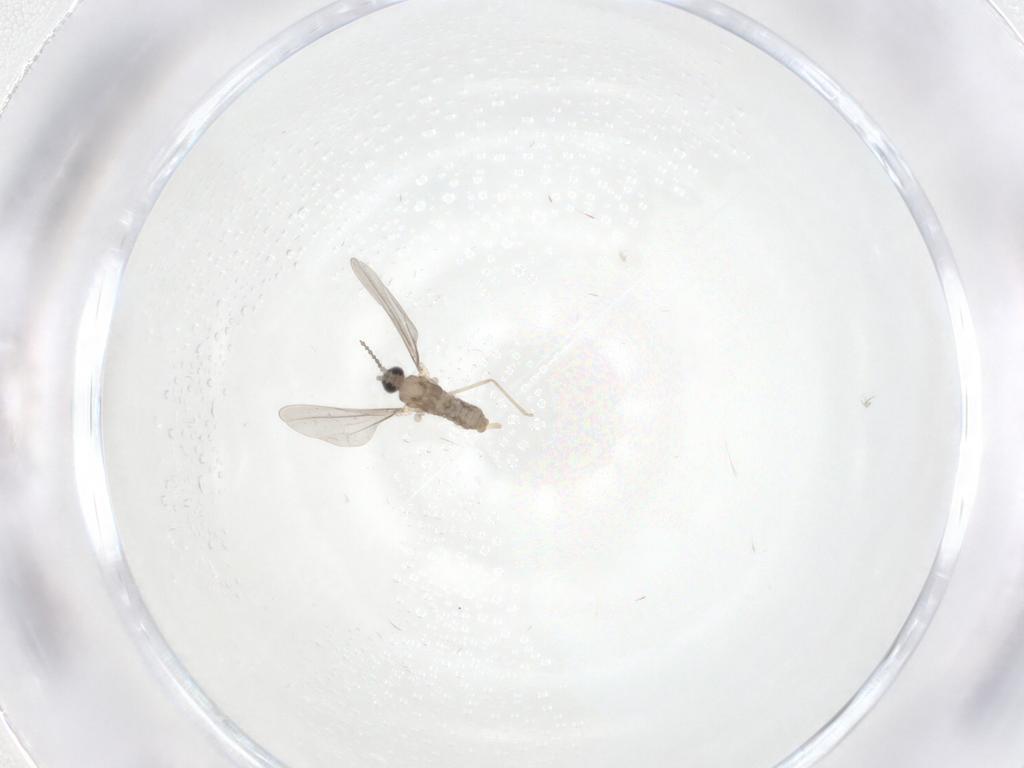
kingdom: Animalia
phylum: Arthropoda
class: Insecta
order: Diptera
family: Cecidomyiidae
